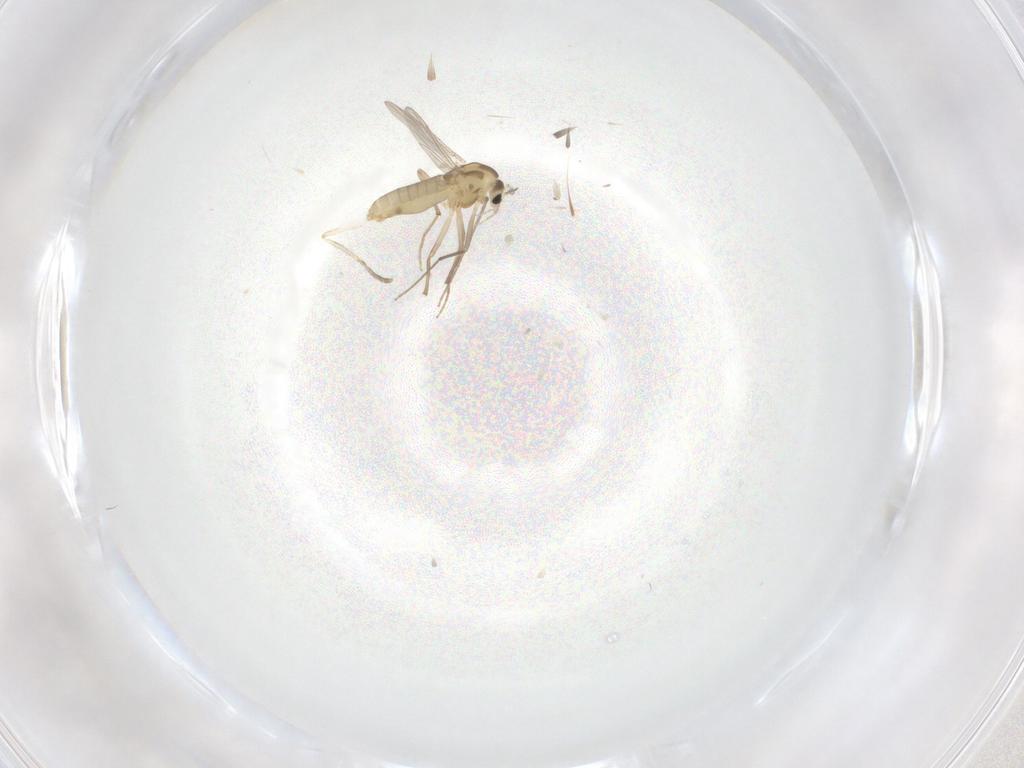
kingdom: Animalia
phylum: Arthropoda
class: Insecta
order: Diptera
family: Chironomidae
